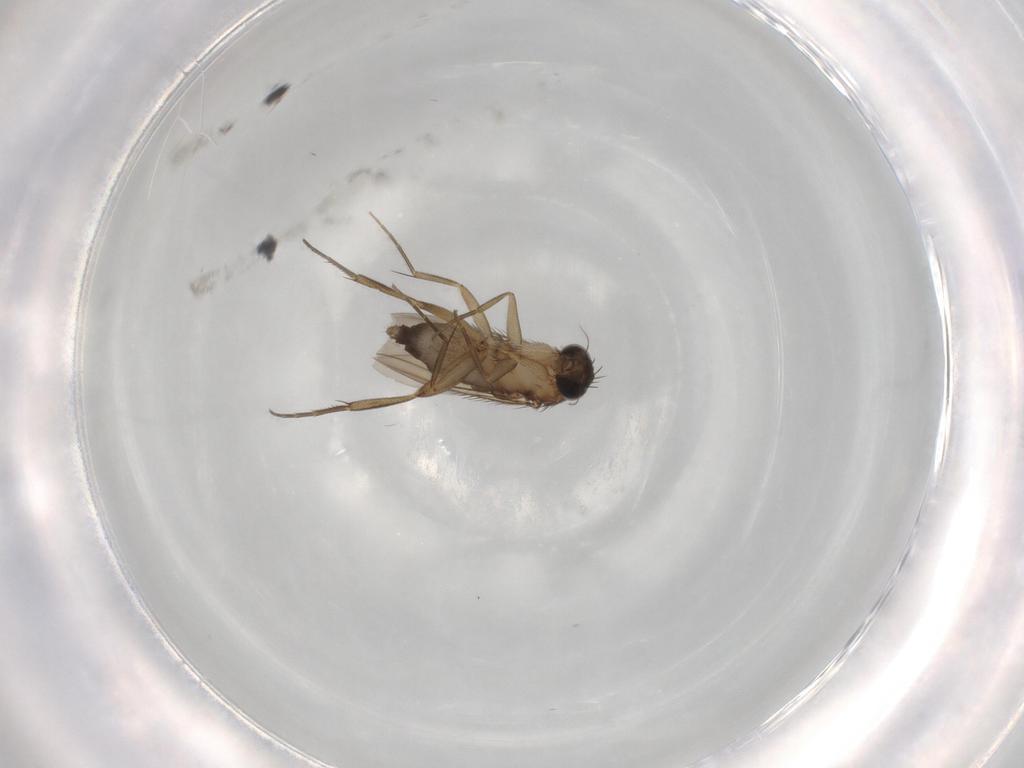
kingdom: Animalia
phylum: Arthropoda
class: Insecta
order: Diptera
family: Phoridae
